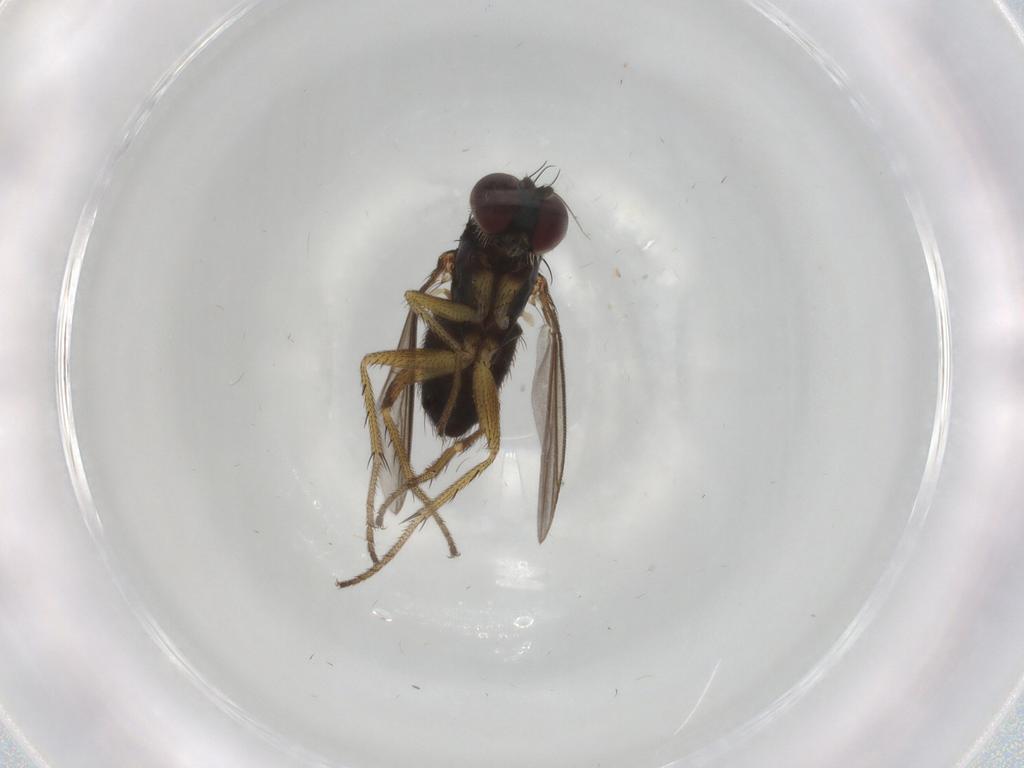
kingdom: Animalia
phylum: Arthropoda
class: Insecta
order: Diptera
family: Dolichopodidae
